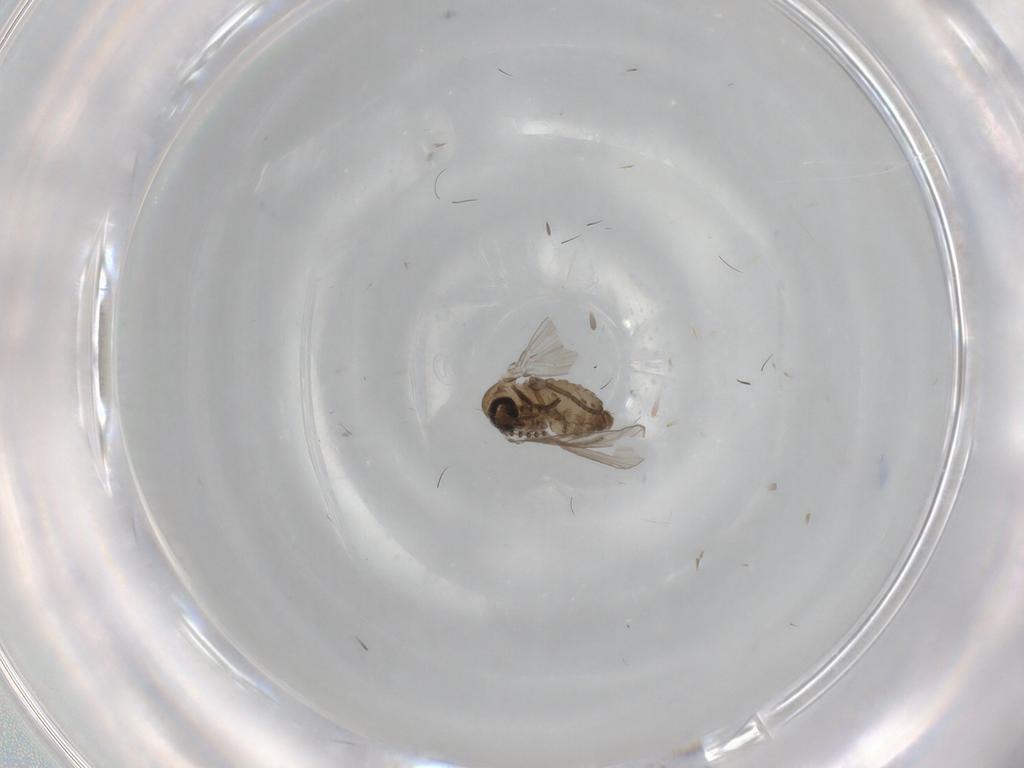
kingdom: Animalia
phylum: Arthropoda
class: Insecta
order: Diptera
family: Psychodidae
